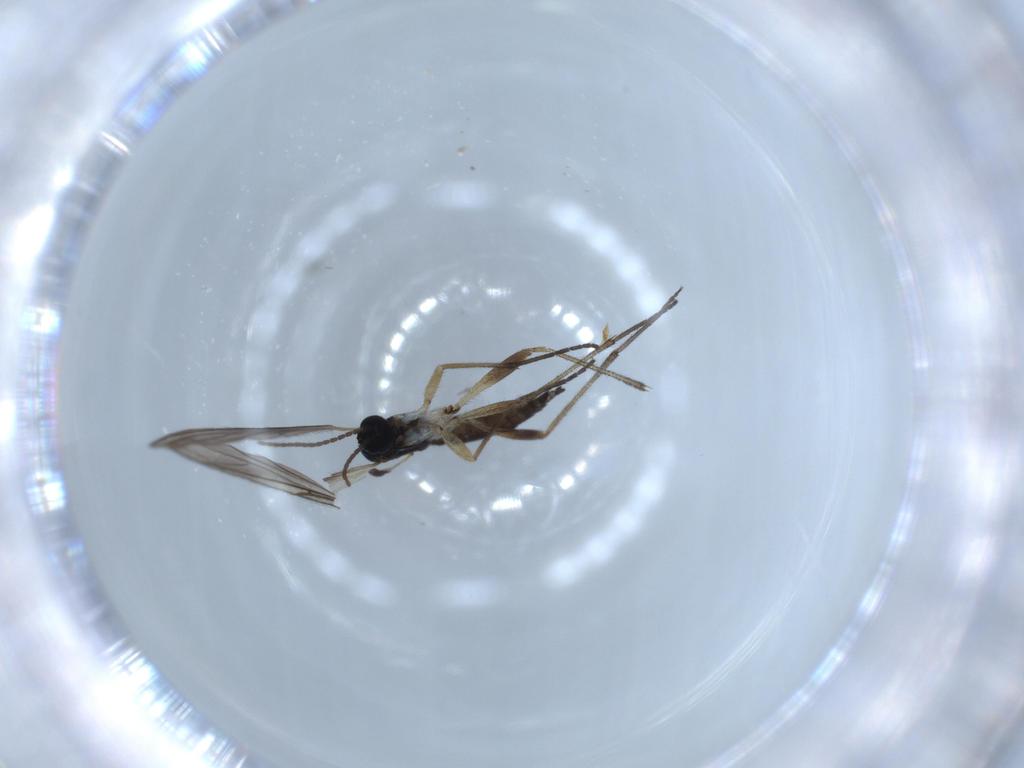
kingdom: Animalia
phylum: Arthropoda
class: Insecta
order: Diptera
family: Sciaridae
